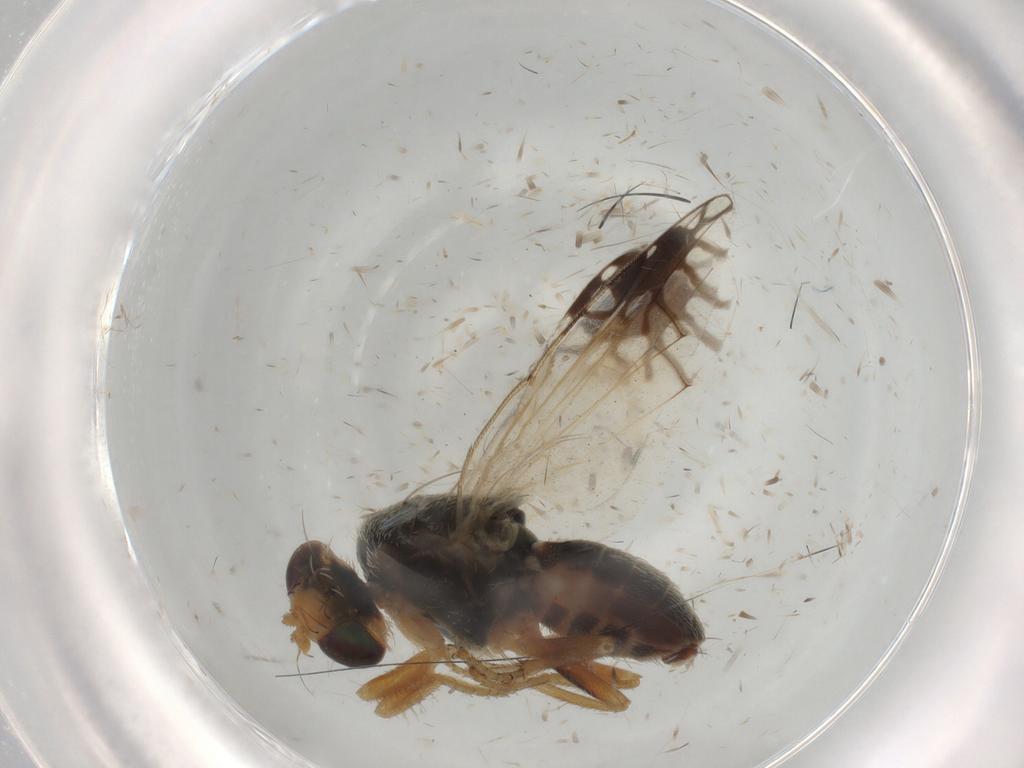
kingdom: Animalia
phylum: Arthropoda
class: Insecta
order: Diptera
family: Tephritidae
